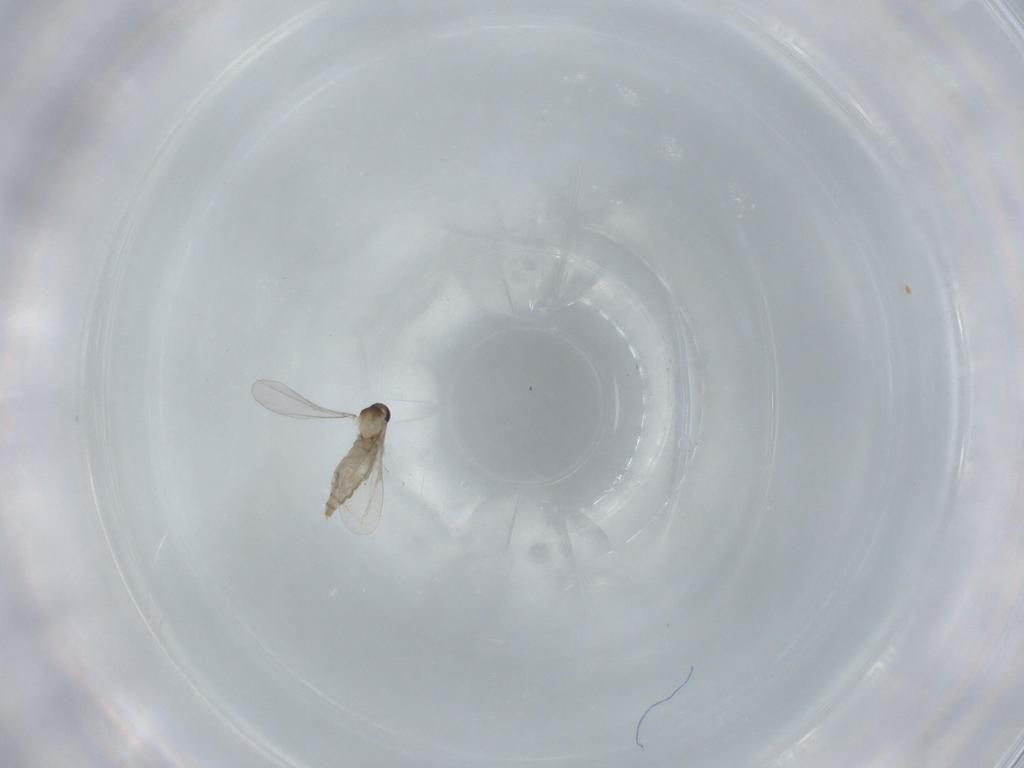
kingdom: Animalia
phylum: Arthropoda
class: Insecta
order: Diptera
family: Milichiidae
